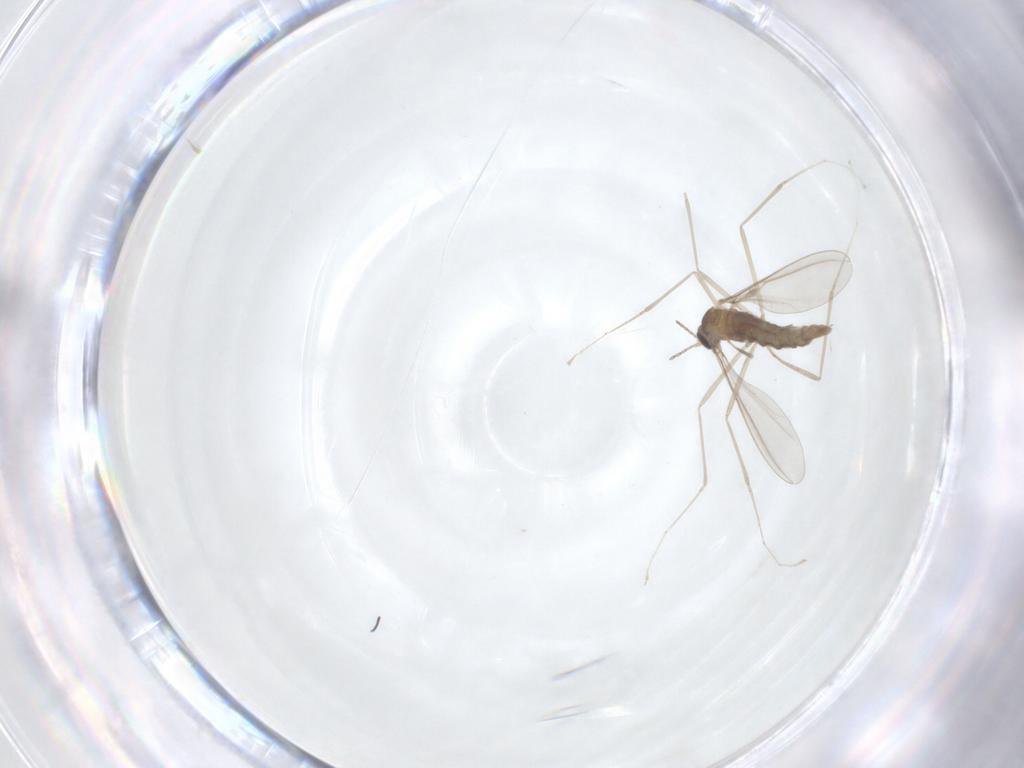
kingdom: Animalia
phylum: Arthropoda
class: Insecta
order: Diptera
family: Cecidomyiidae
